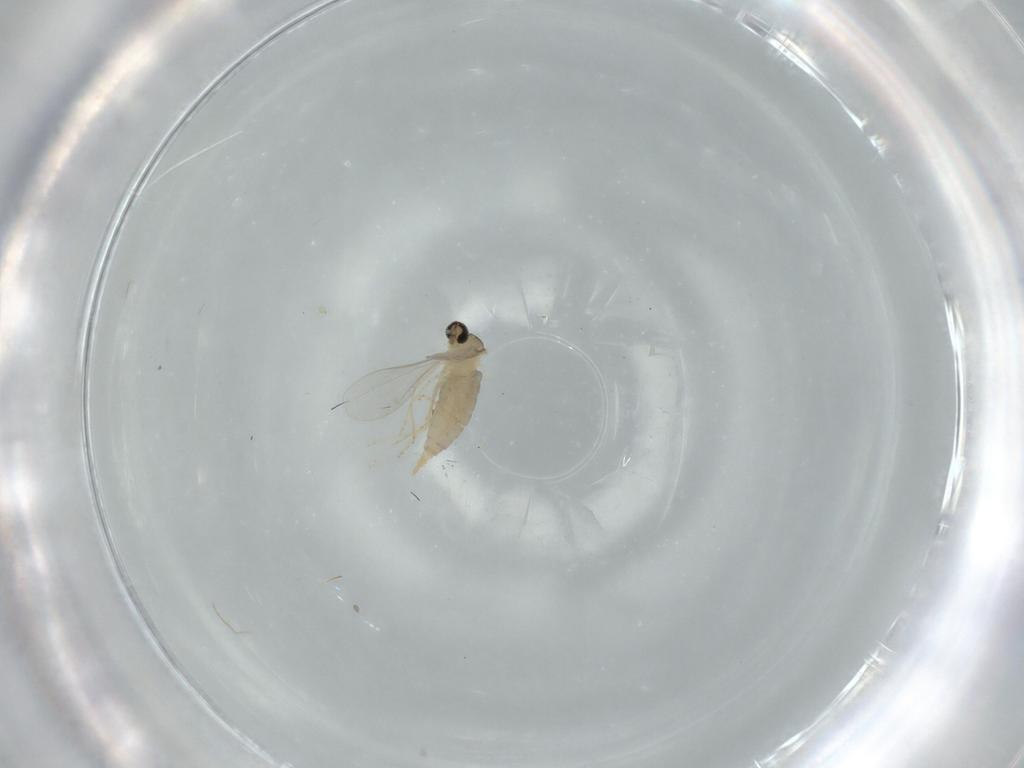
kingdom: Animalia
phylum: Arthropoda
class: Insecta
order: Diptera
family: Chironomidae
